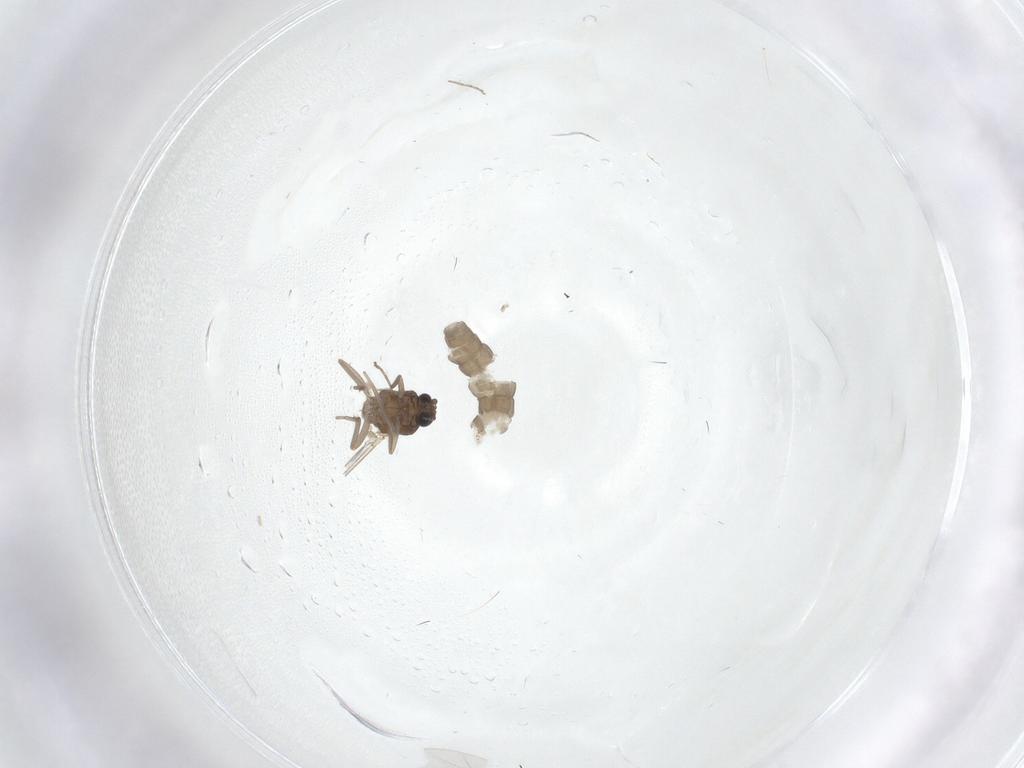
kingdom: Animalia
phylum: Arthropoda
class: Insecta
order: Diptera
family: Ceratopogonidae
